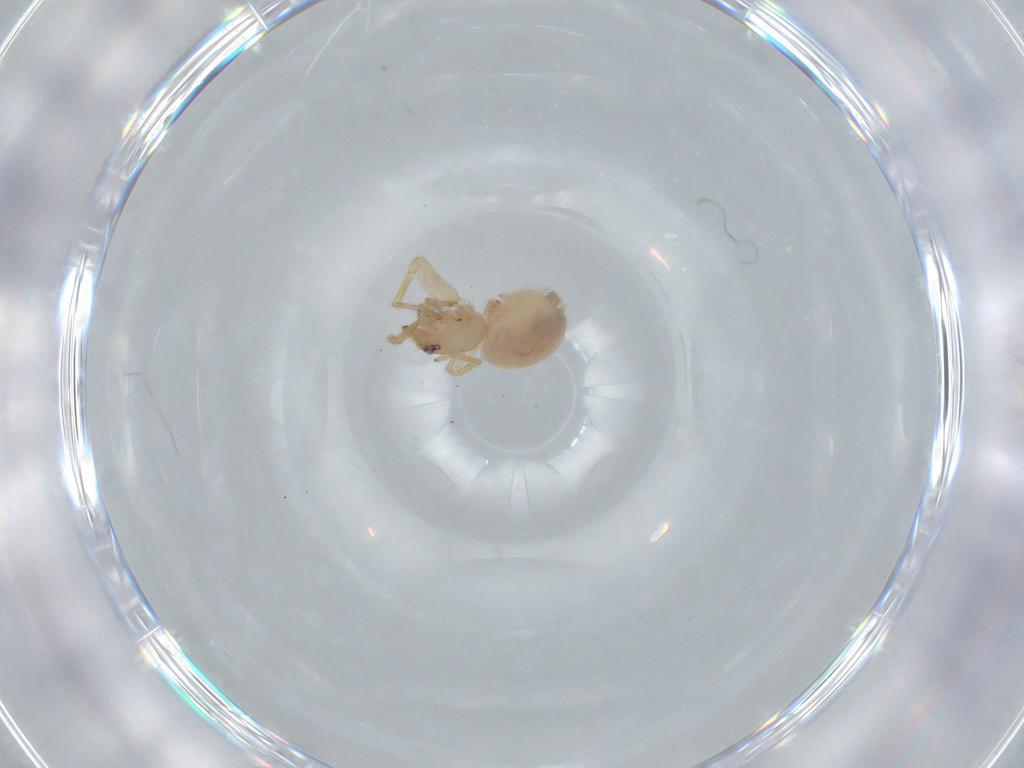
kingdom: Animalia
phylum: Arthropoda
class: Arachnida
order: Araneae
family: Oonopidae
